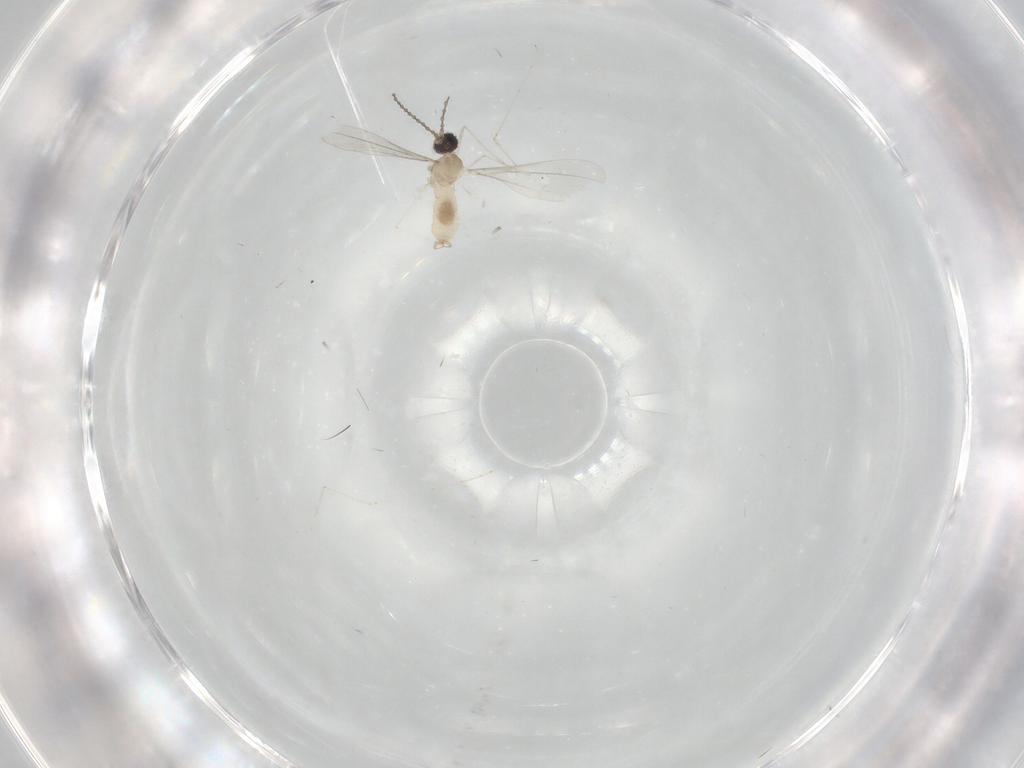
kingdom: Animalia
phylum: Arthropoda
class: Insecta
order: Diptera
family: Cecidomyiidae
